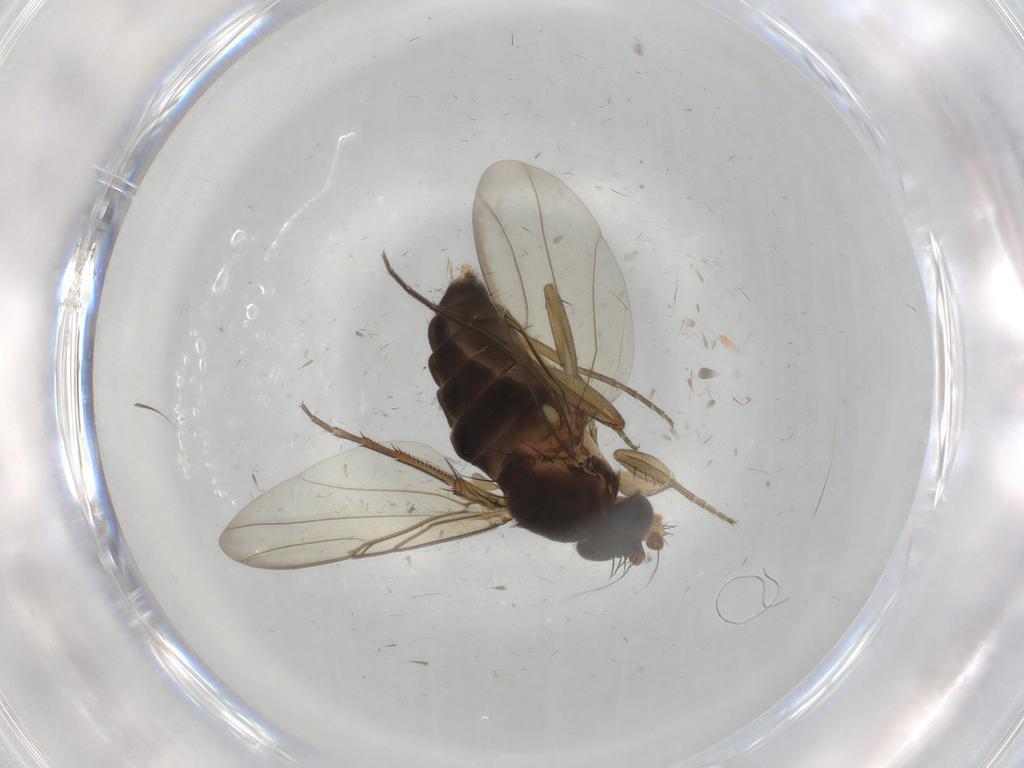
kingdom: Animalia
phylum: Arthropoda
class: Insecta
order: Diptera
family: Phoridae
